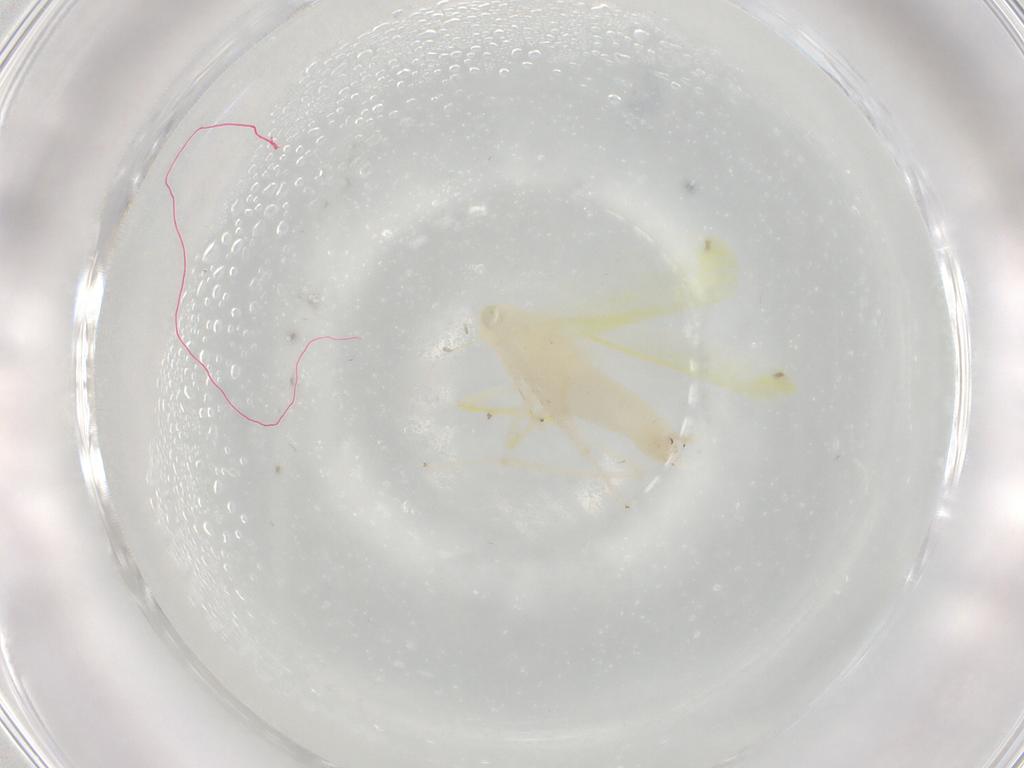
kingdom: Animalia
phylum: Arthropoda
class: Insecta
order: Hemiptera
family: Cicadellidae
